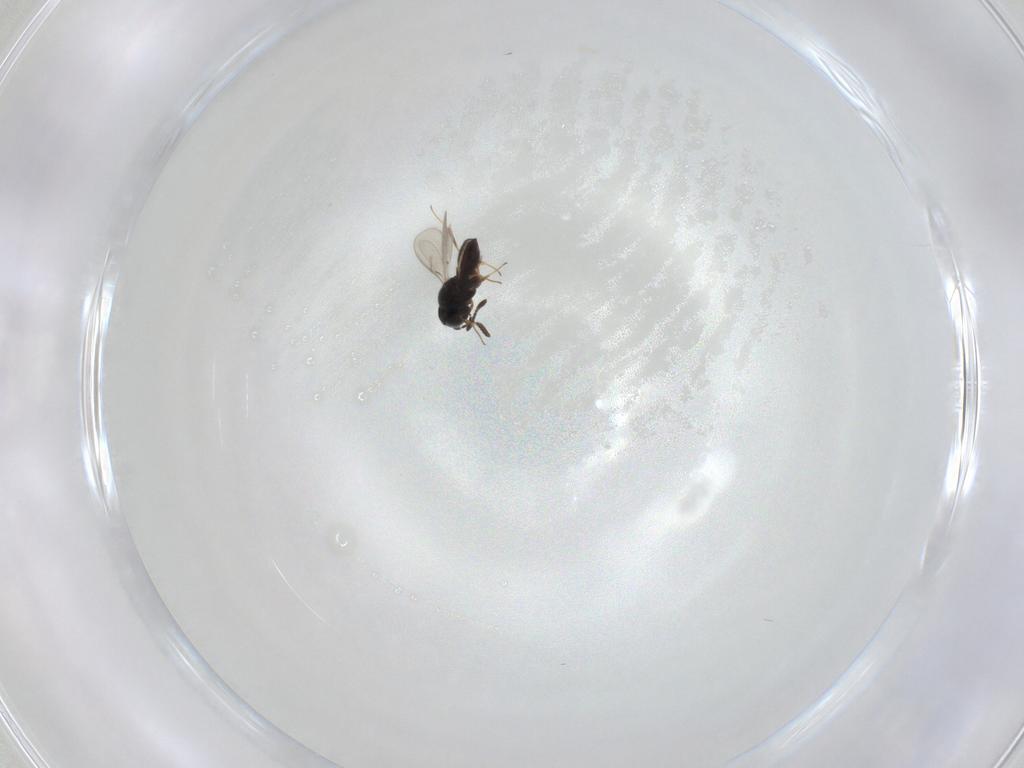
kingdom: Animalia
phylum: Arthropoda
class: Insecta
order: Hymenoptera
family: Scelionidae
